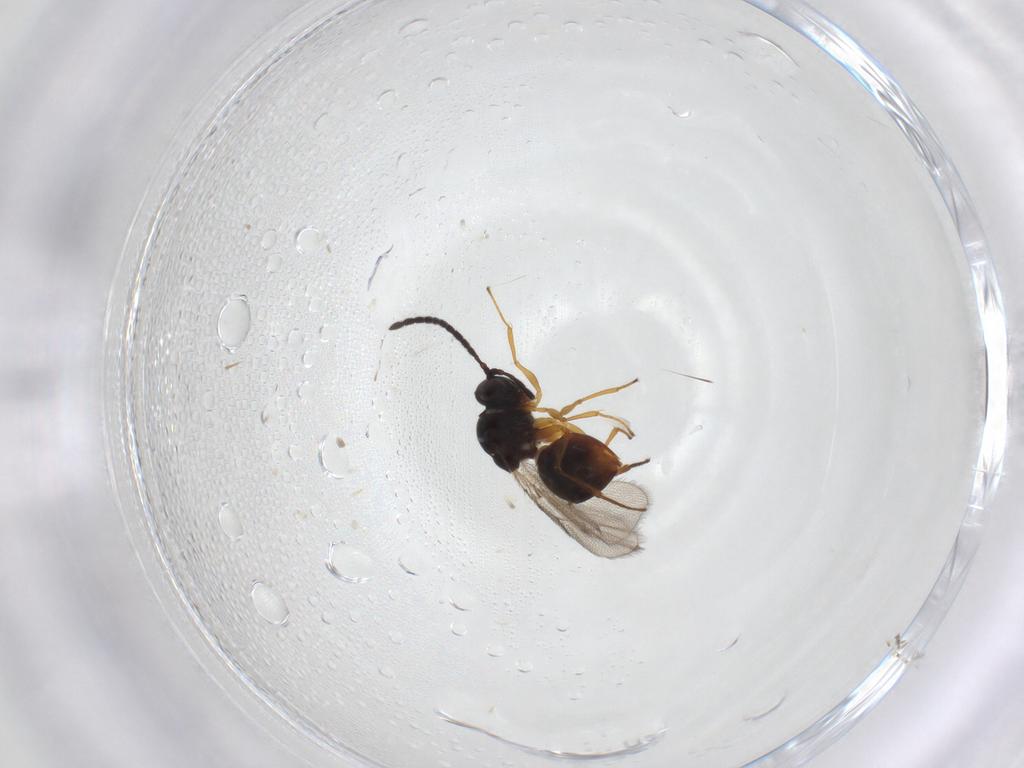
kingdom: Animalia
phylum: Arthropoda
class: Insecta
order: Hymenoptera
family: Figitidae
